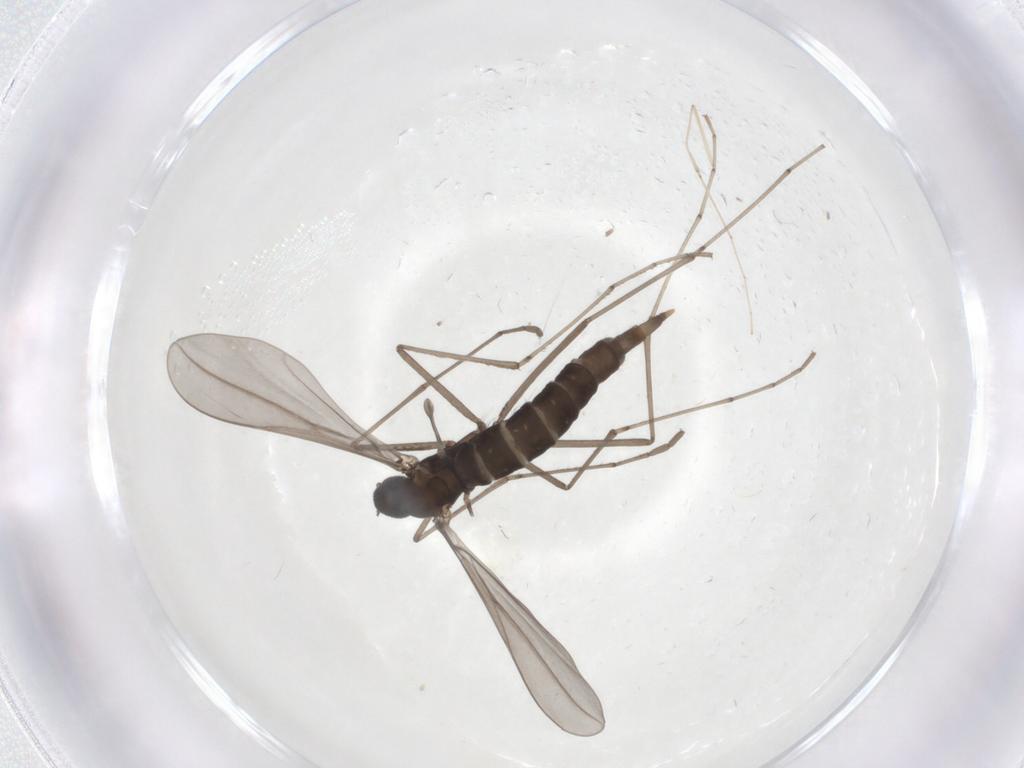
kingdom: Animalia
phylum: Arthropoda
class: Insecta
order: Diptera
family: Cecidomyiidae
